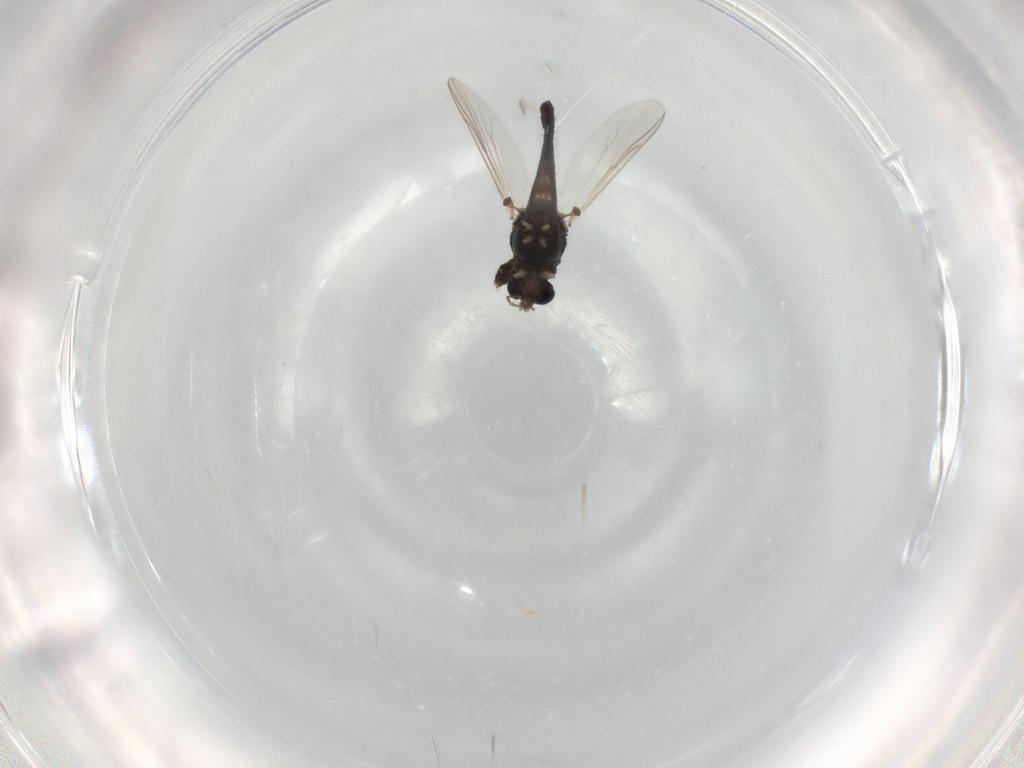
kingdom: Animalia
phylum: Arthropoda
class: Insecta
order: Diptera
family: Chironomidae
